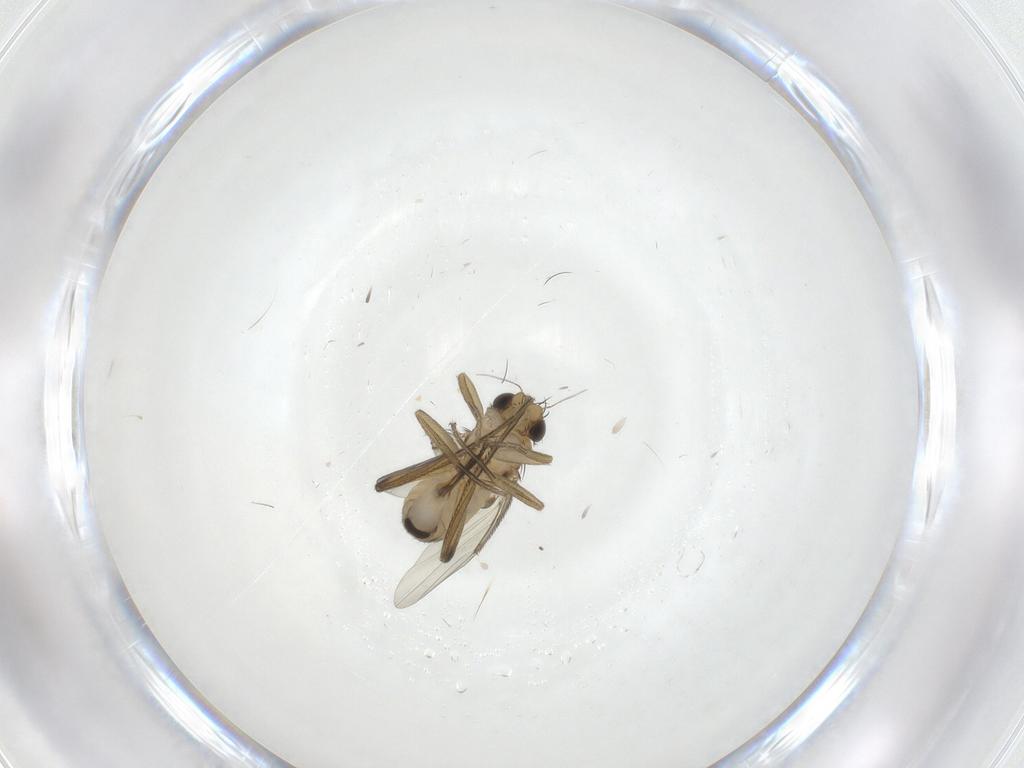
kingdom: Animalia
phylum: Arthropoda
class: Insecta
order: Diptera
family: Phoridae
